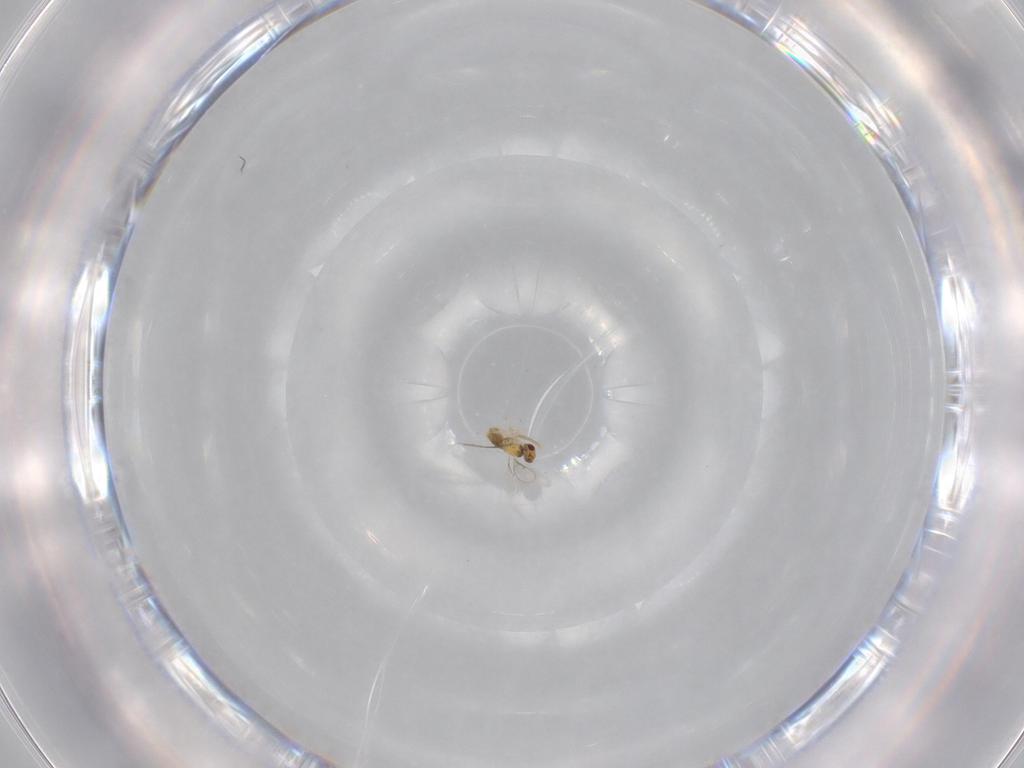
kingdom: Animalia
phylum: Arthropoda
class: Insecta
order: Hymenoptera
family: Aphelinidae
